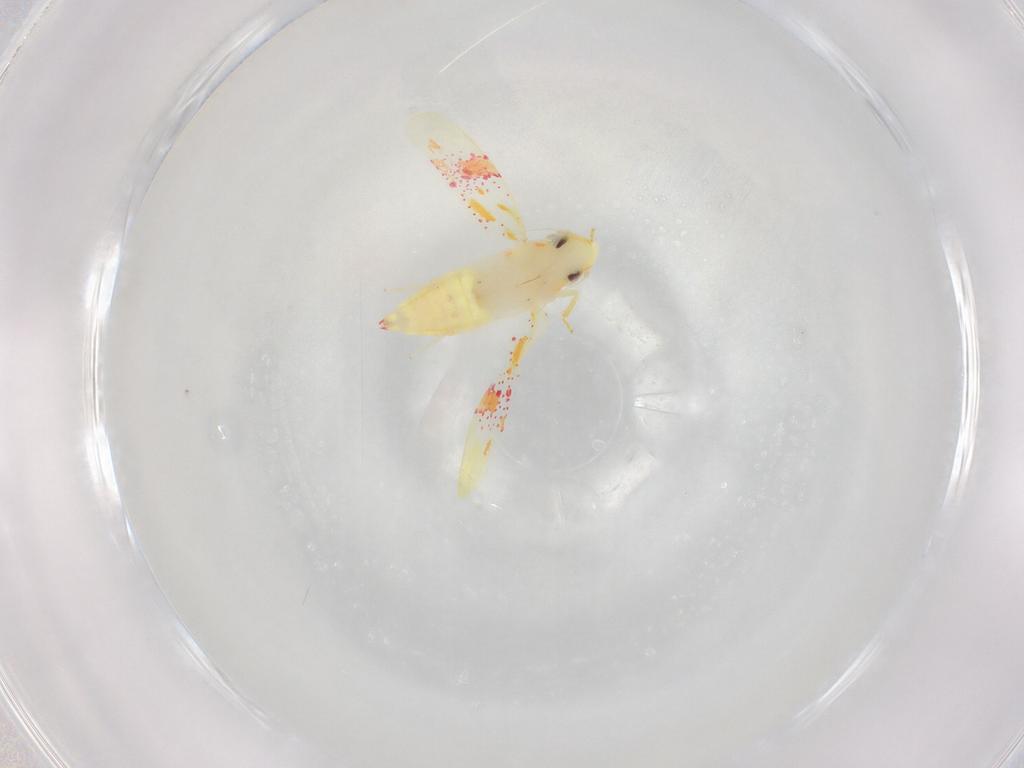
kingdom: Animalia
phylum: Arthropoda
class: Insecta
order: Hemiptera
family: Cicadellidae
